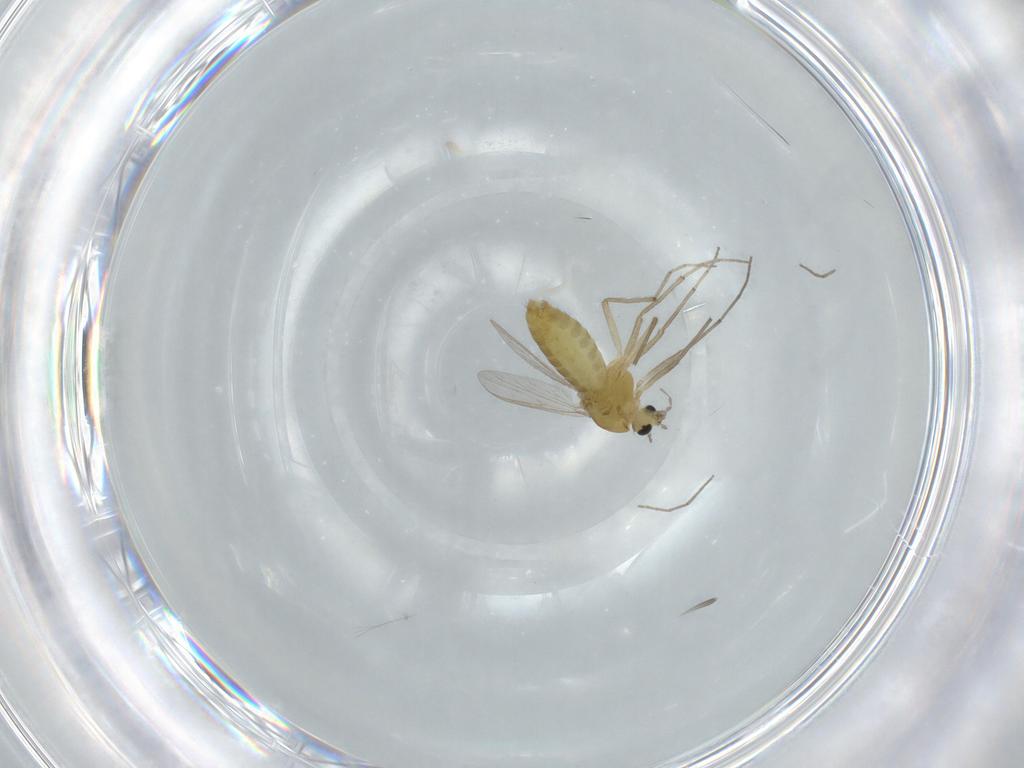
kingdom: Animalia
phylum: Arthropoda
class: Insecta
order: Diptera
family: Chironomidae
